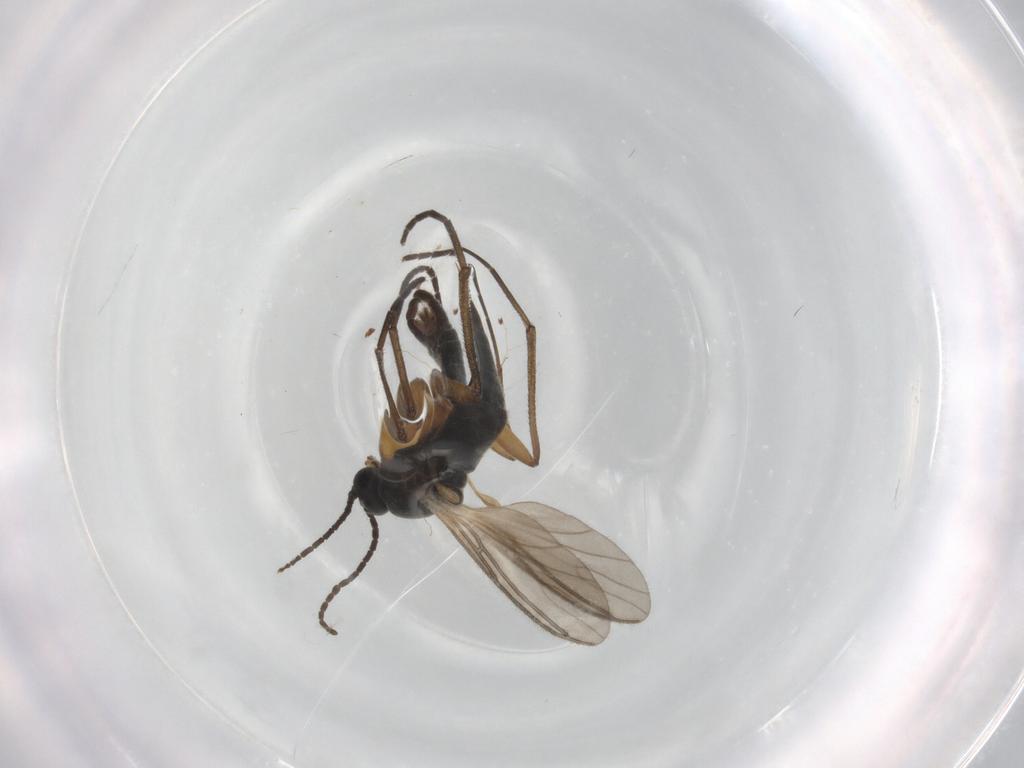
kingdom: Animalia
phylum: Arthropoda
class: Insecta
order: Diptera
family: Sciaridae
